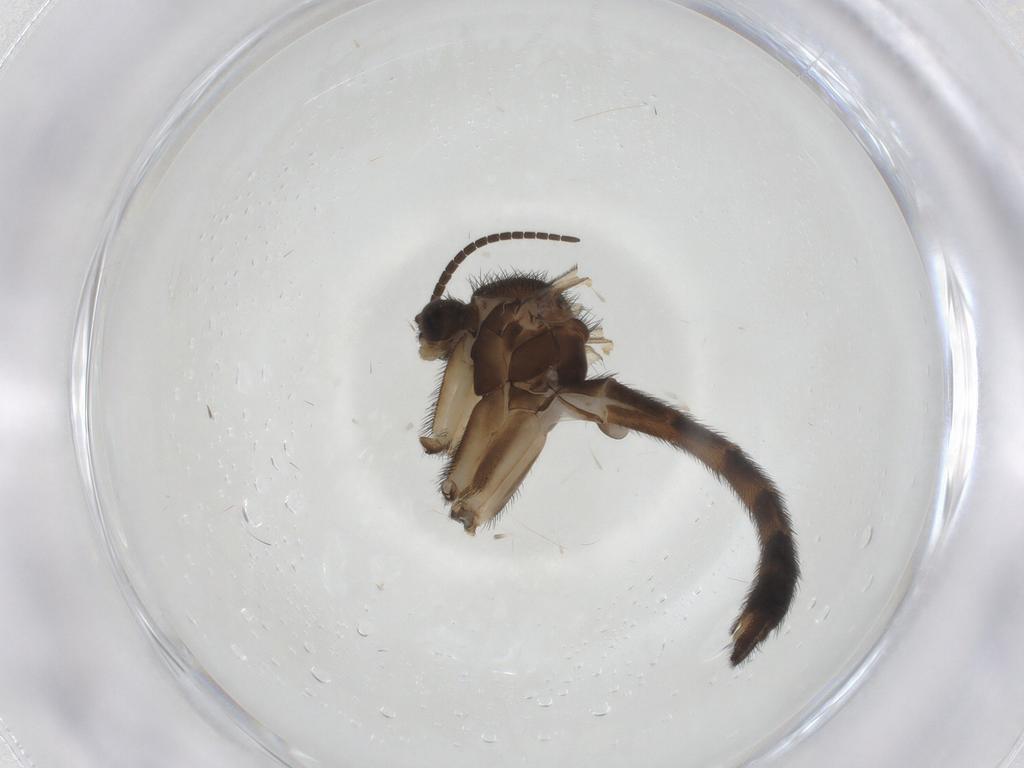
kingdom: Animalia
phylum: Arthropoda
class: Insecta
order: Diptera
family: Keroplatidae
